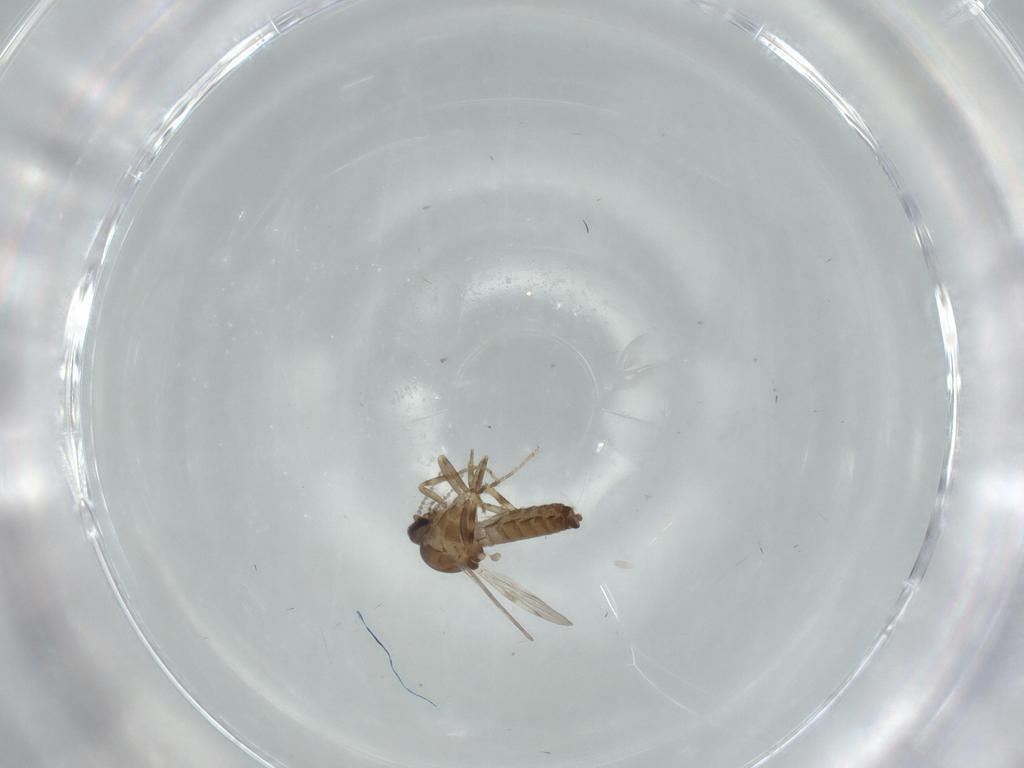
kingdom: Animalia
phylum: Arthropoda
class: Insecta
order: Diptera
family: Ceratopogonidae
